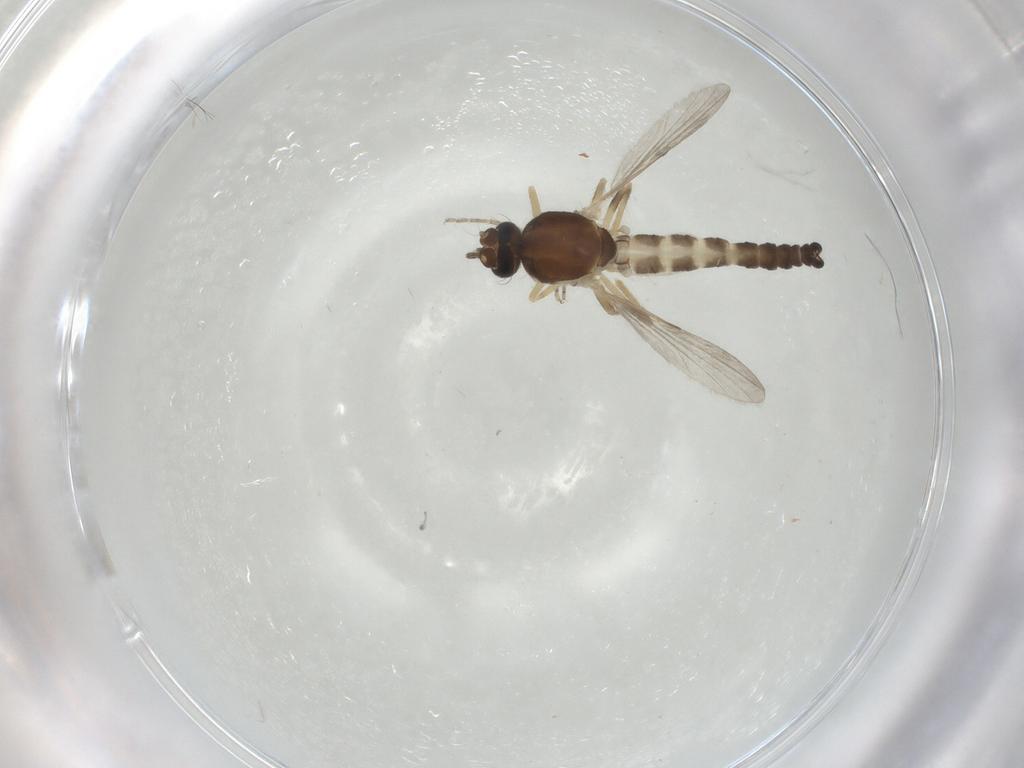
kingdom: Animalia
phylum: Arthropoda
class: Insecta
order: Diptera
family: Ceratopogonidae
